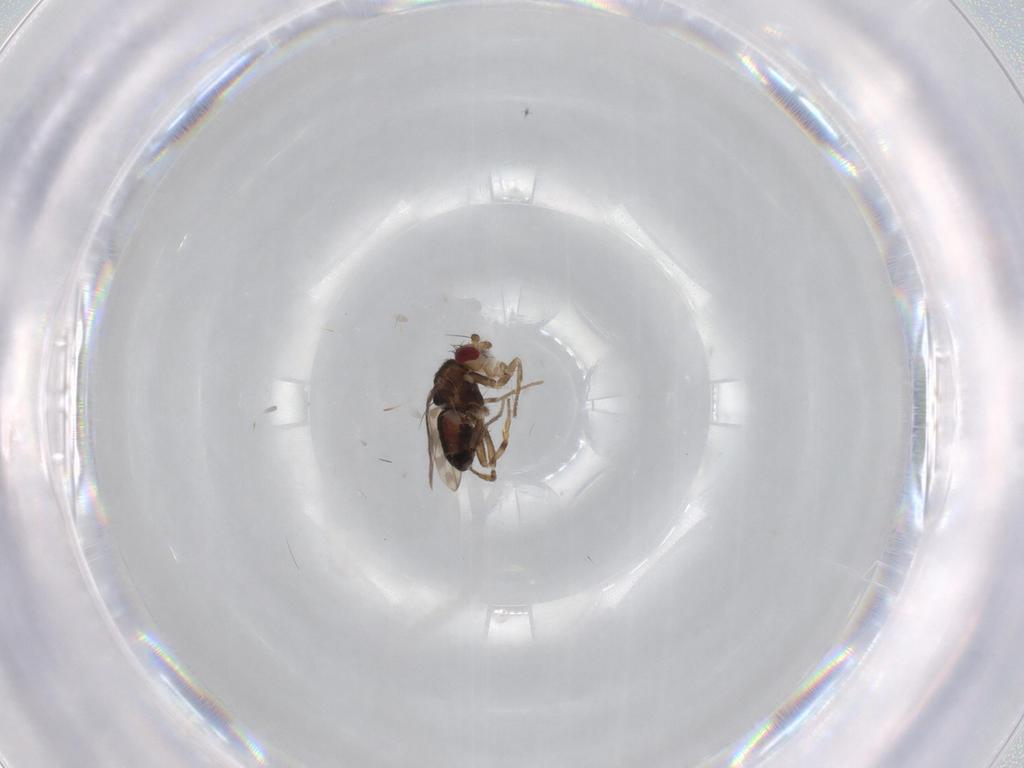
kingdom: Animalia
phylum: Arthropoda
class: Insecta
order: Diptera
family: Sphaeroceridae
